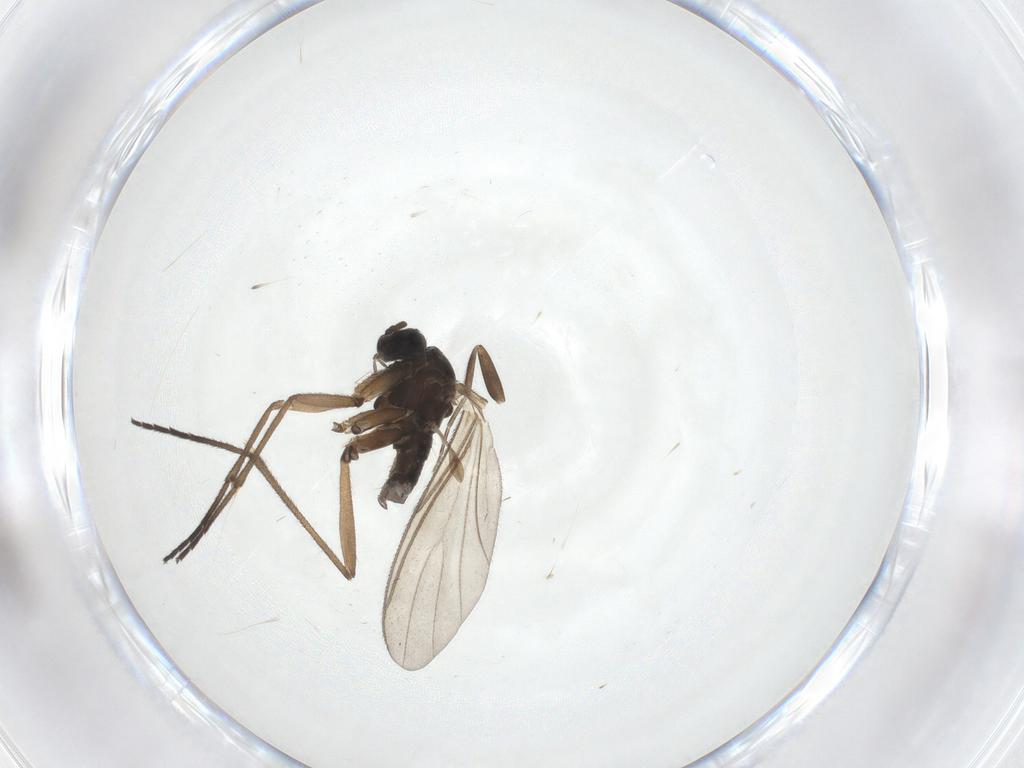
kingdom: Animalia
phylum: Arthropoda
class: Insecta
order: Diptera
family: Sciaridae
